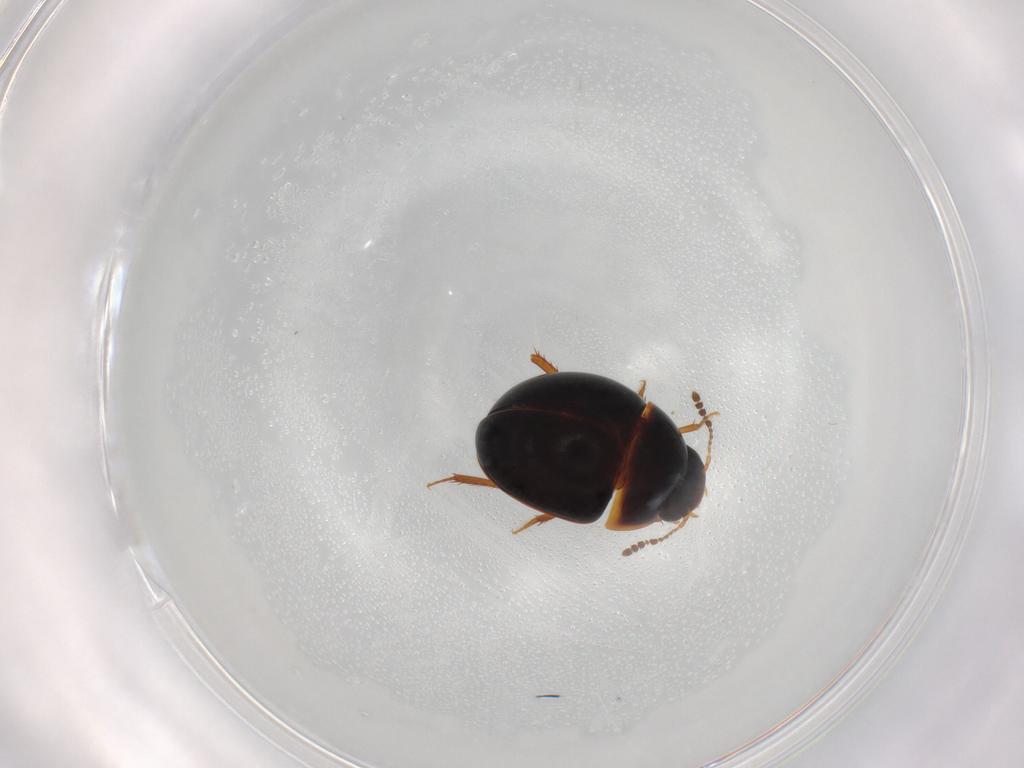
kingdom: Animalia
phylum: Arthropoda
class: Insecta
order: Coleoptera
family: Leiodidae
